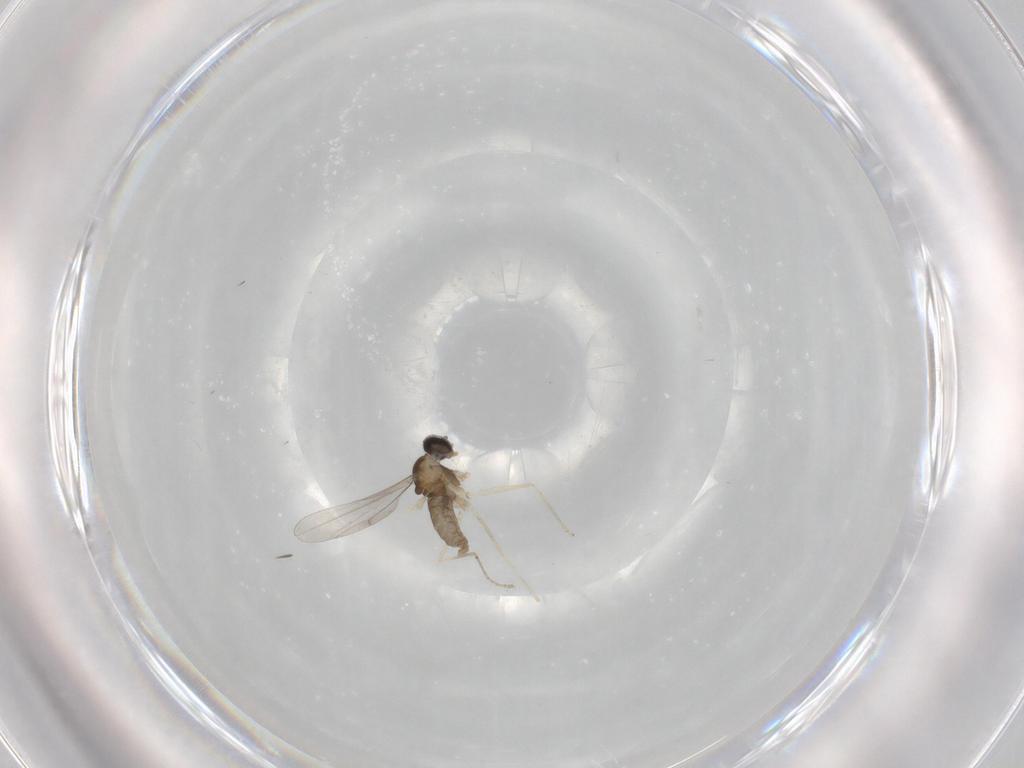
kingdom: Animalia
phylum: Arthropoda
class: Insecta
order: Diptera
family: Cecidomyiidae
